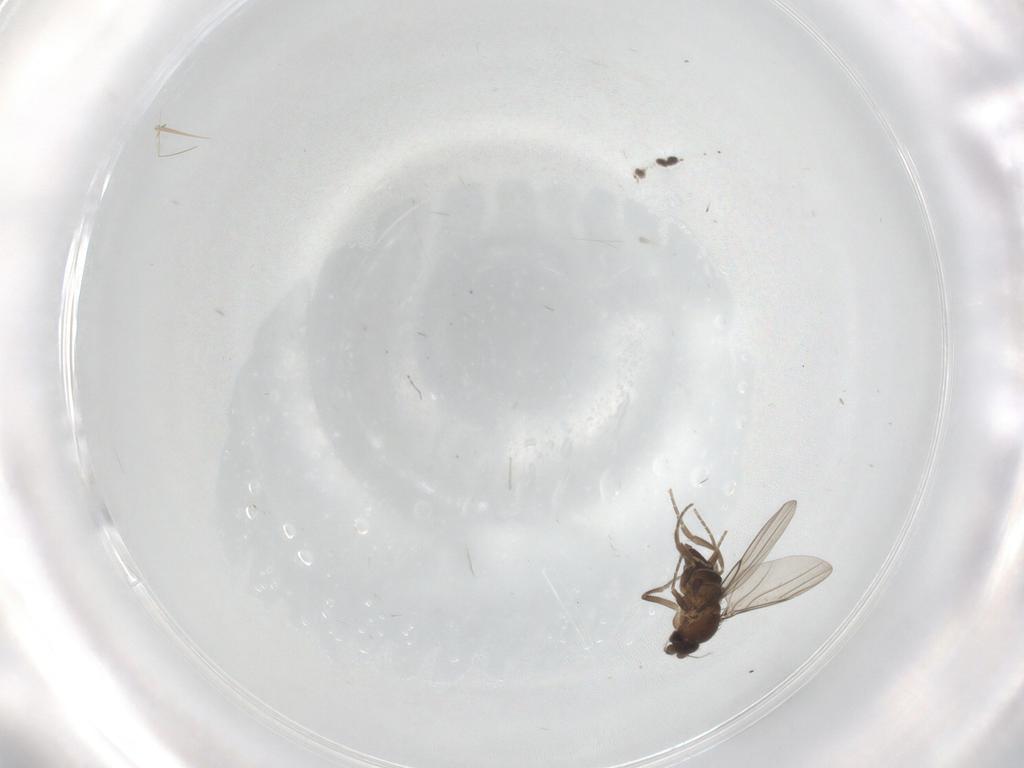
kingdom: Animalia
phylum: Arthropoda
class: Insecta
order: Diptera
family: Phoridae
